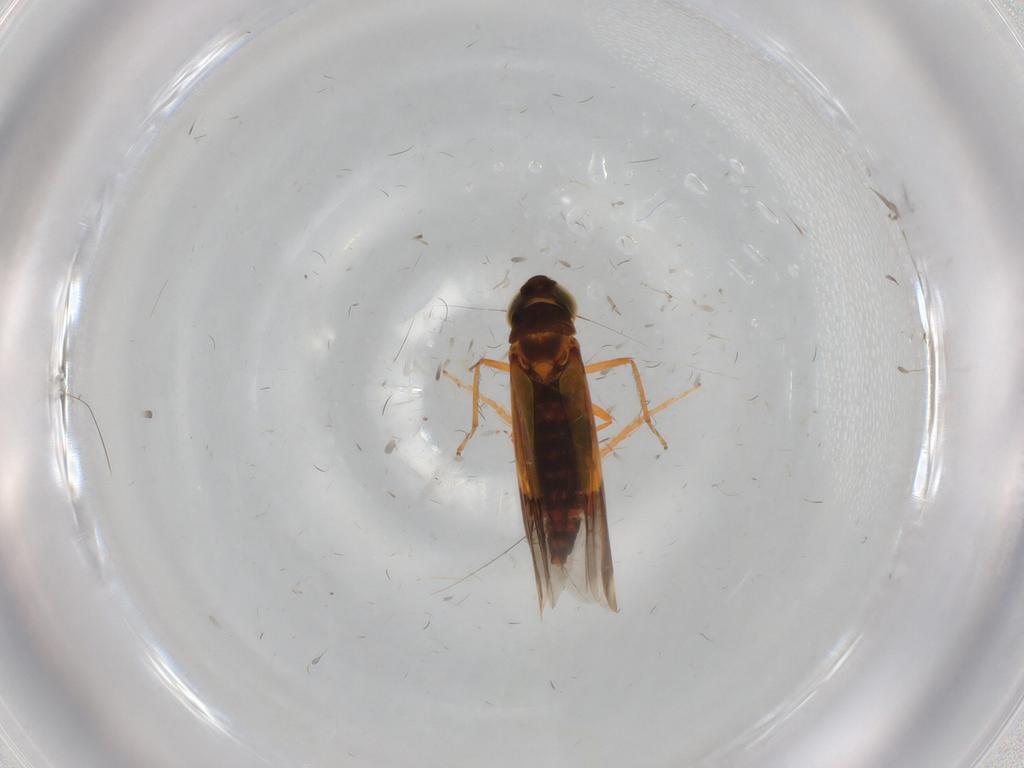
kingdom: Animalia
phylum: Arthropoda
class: Insecta
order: Hemiptera
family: Cicadellidae
